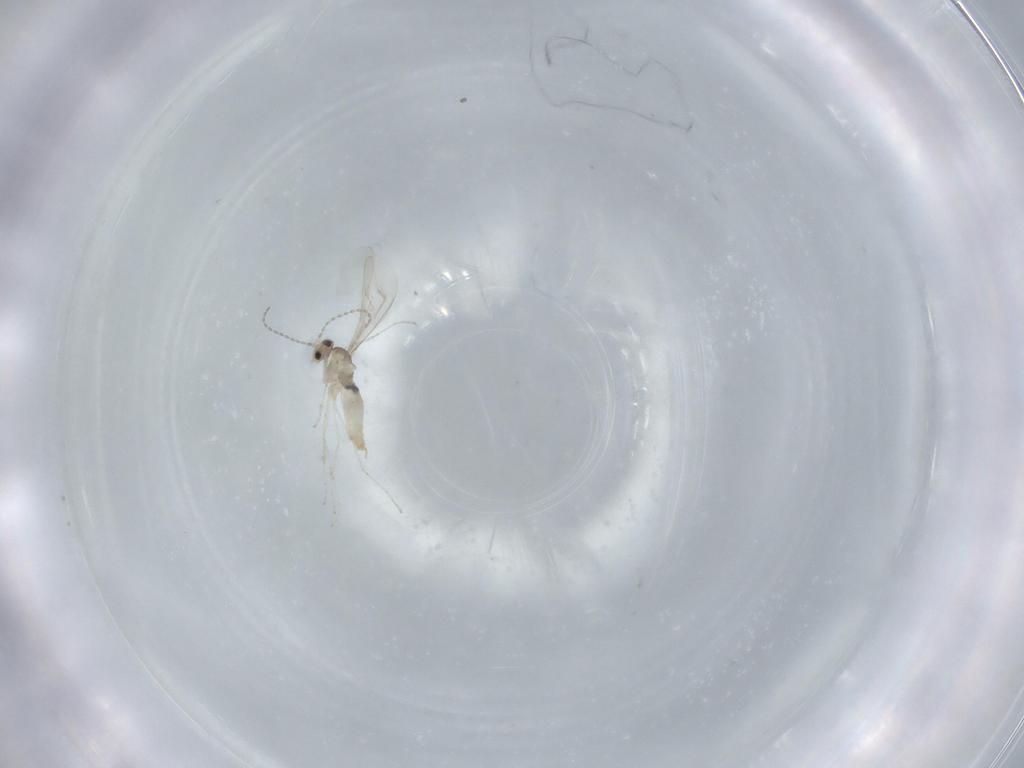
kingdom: Animalia
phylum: Arthropoda
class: Insecta
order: Diptera
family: Cecidomyiidae
